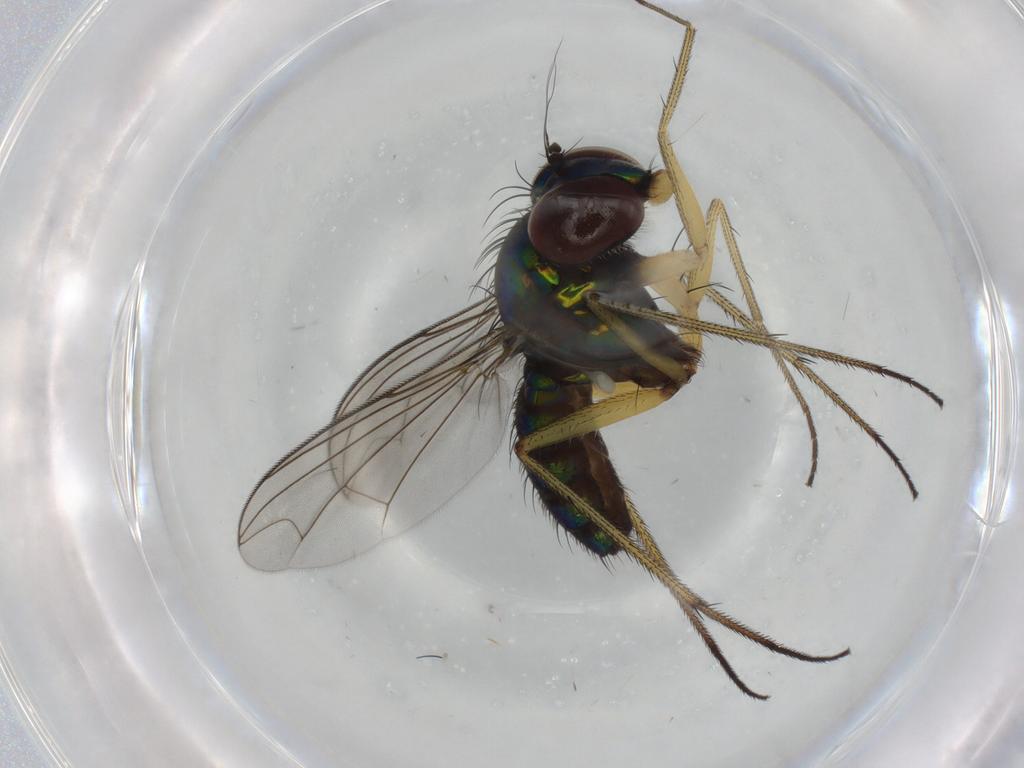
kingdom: Animalia
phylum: Arthropoda
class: Insecta
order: Diptera
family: Dolichopodidae
